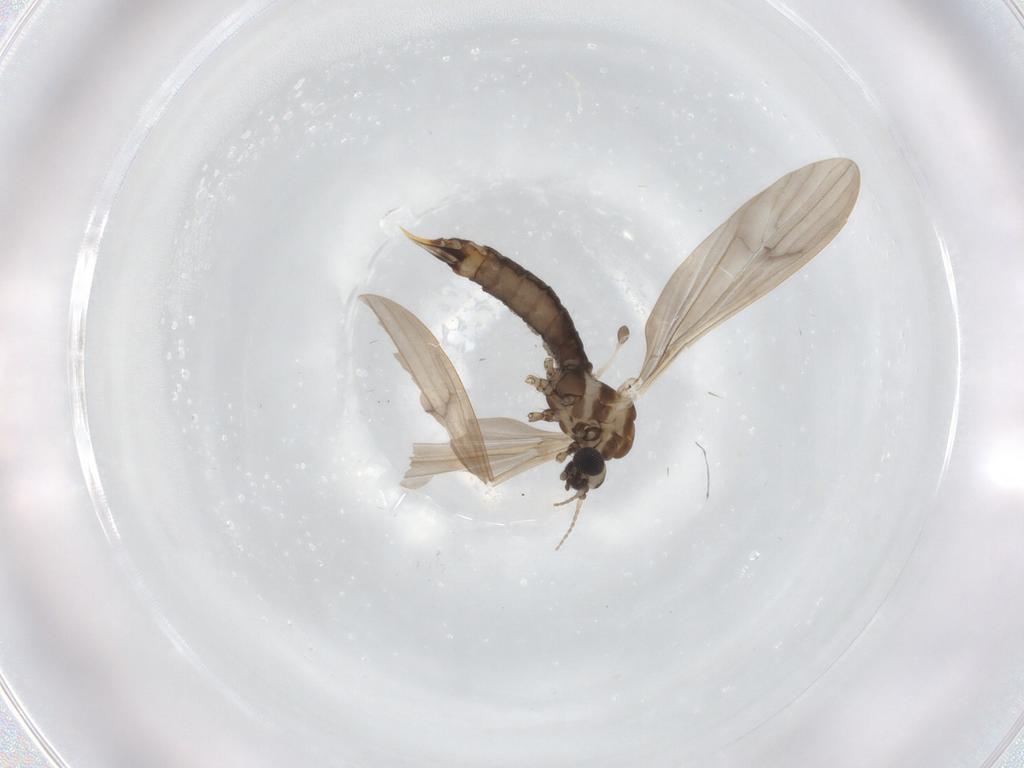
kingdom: Animalia
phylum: Arthropoda
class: Insecta
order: Diptera
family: Limoniidae
